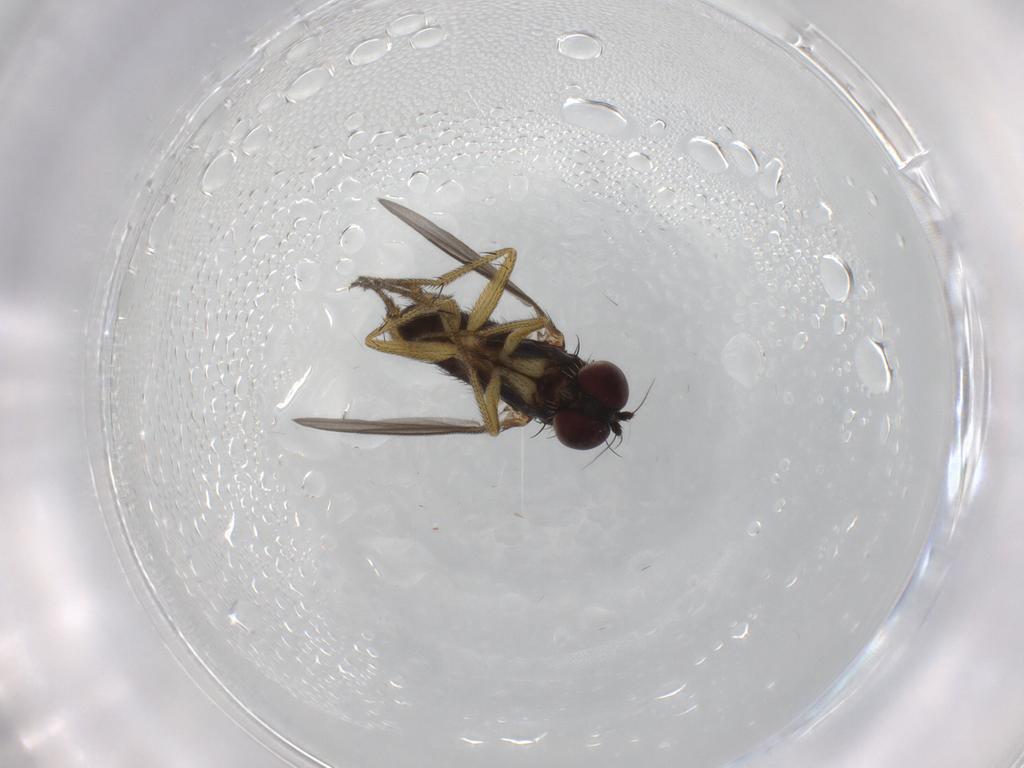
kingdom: Animalia
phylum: Arthropoda
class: Insecta
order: Diptera
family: Dolichopodidae
